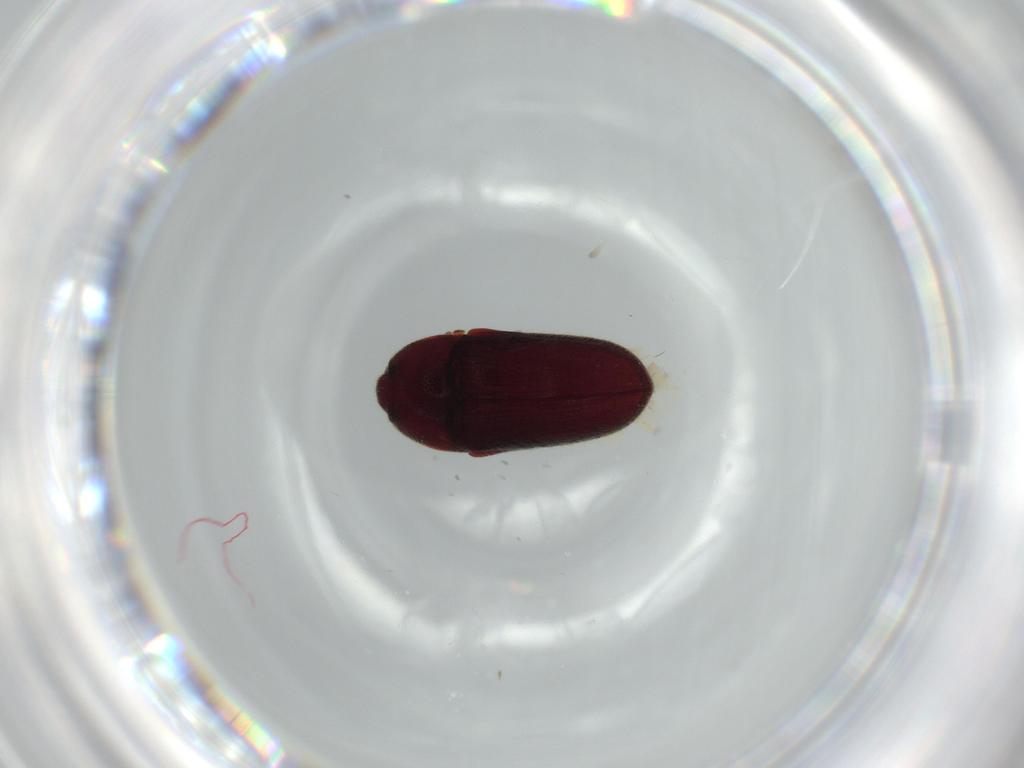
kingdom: Animalia
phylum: Arthropoda
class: Insecta
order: Coleoptera
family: Throscidae
